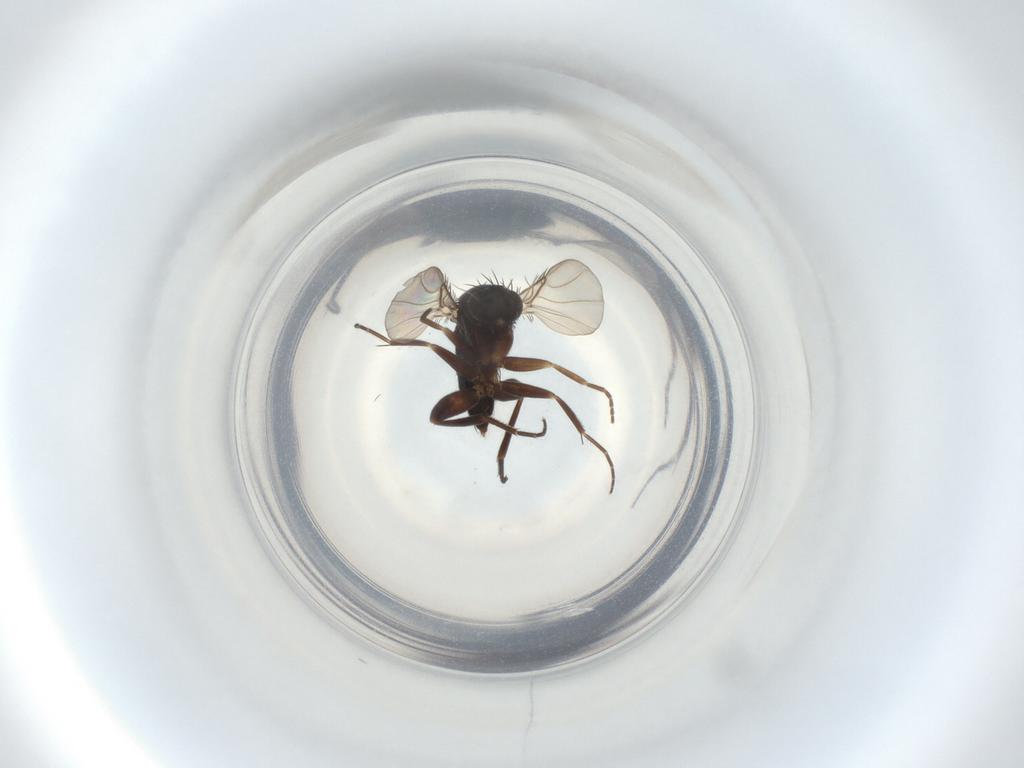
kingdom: Animalia
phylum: Arthropoda
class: Insecta
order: Diptera
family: Phoridae
